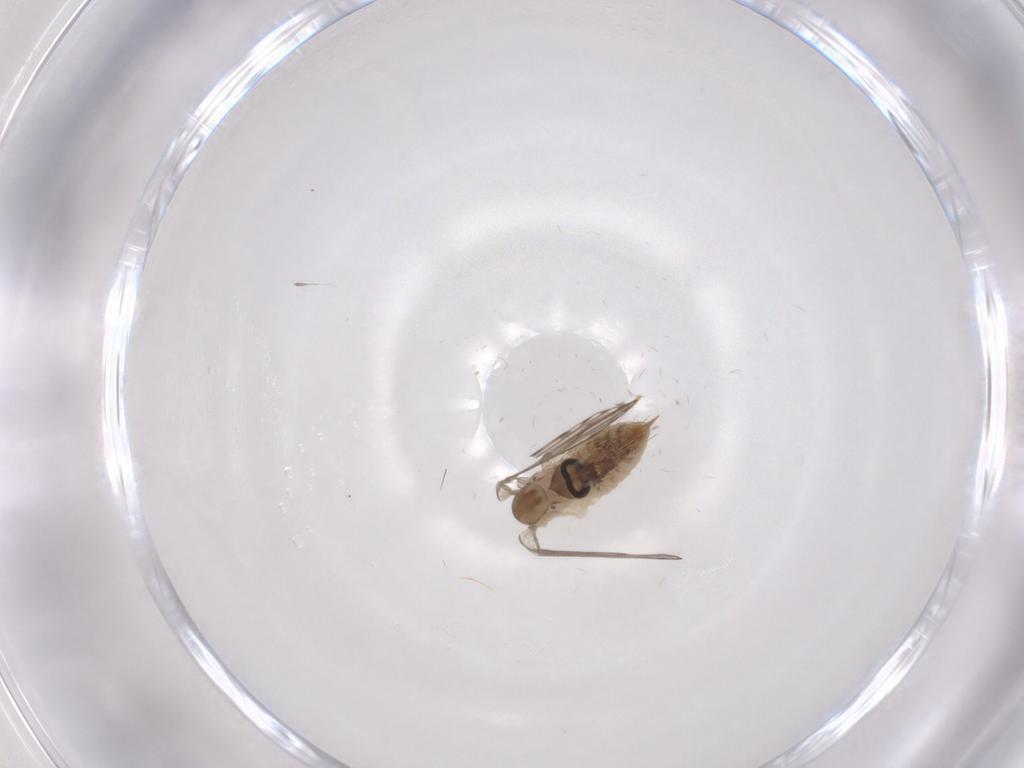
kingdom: Animalia
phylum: Arthropoda
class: Insecta
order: Diptera
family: Psychodidae
